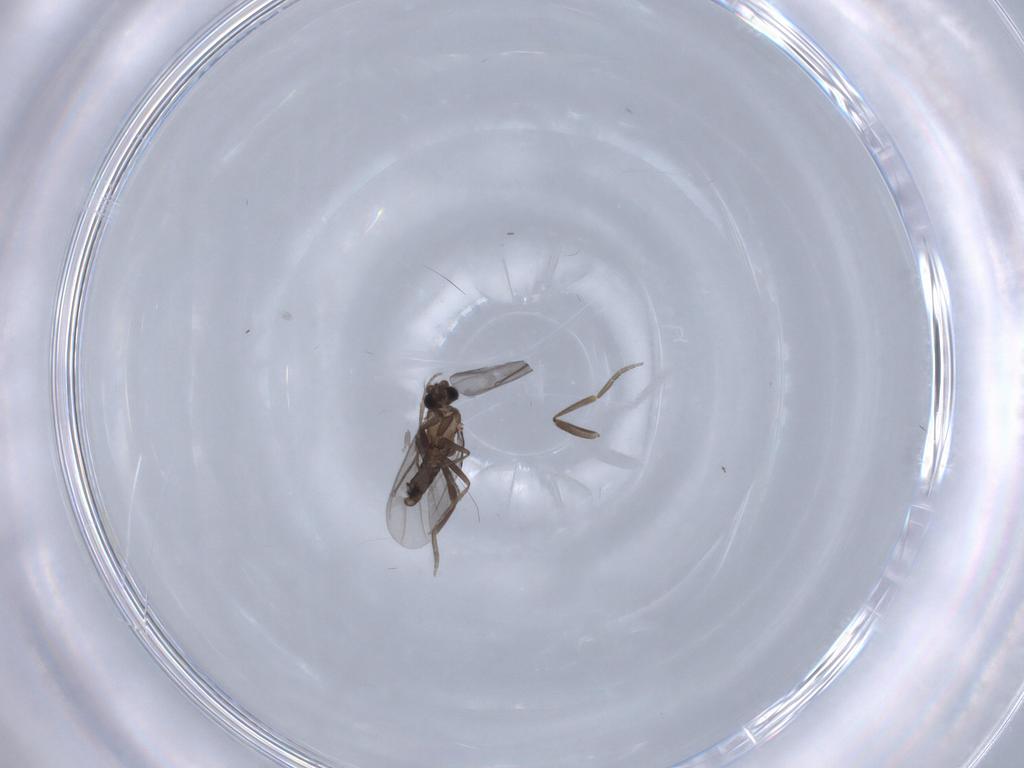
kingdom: Animalia
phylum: Arthropoda
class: Insecta
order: Diptera
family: Phoridae
